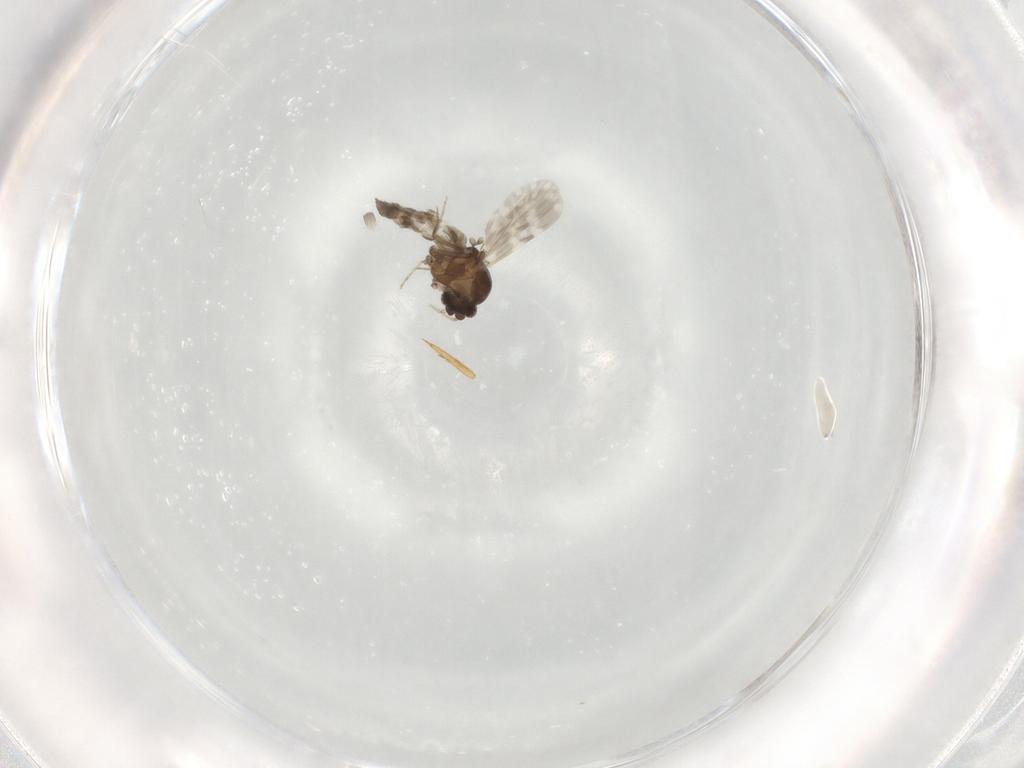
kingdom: Animalia
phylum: Arthropoda
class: Insecta
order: Diptera
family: Ceratopogonidae
